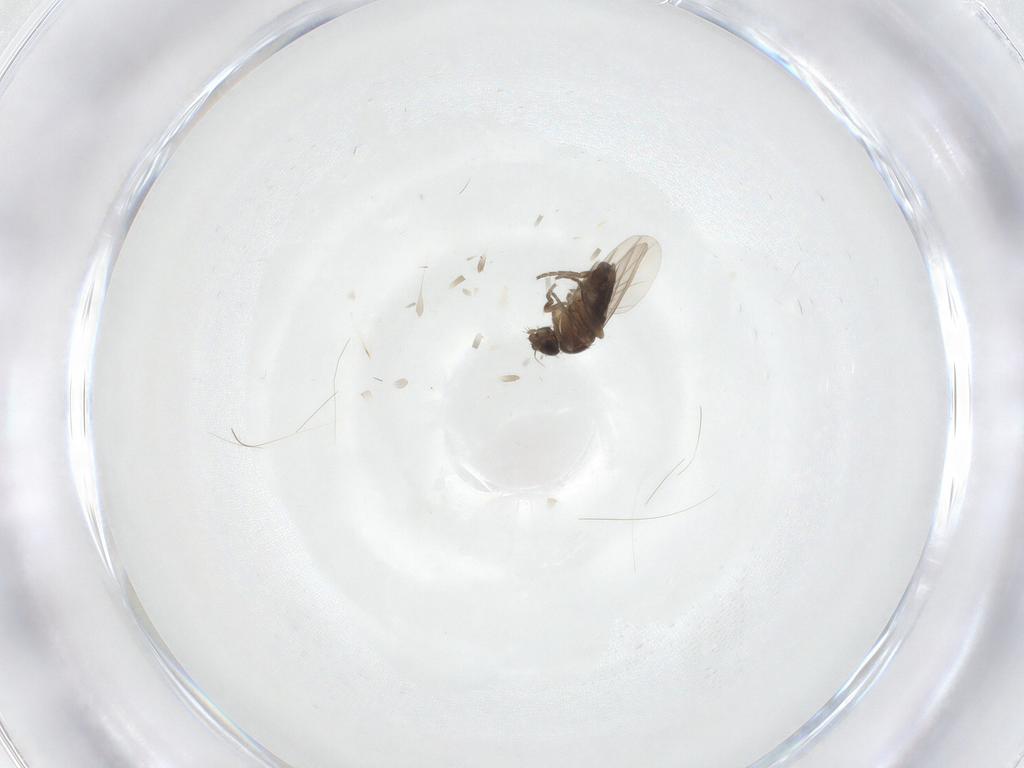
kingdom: Animalia
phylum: Arthropoda
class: Insecta
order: Diptera
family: Phoridae
